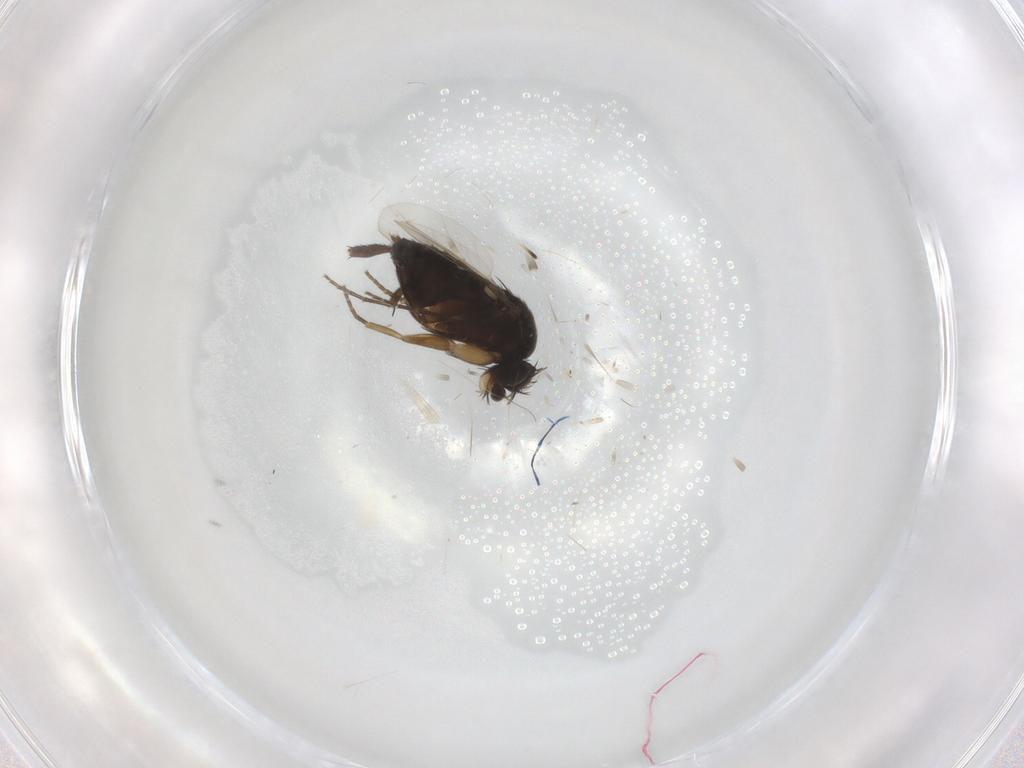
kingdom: Animalia
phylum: Arthropoda
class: Insecta
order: Diptera
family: Phoridae
